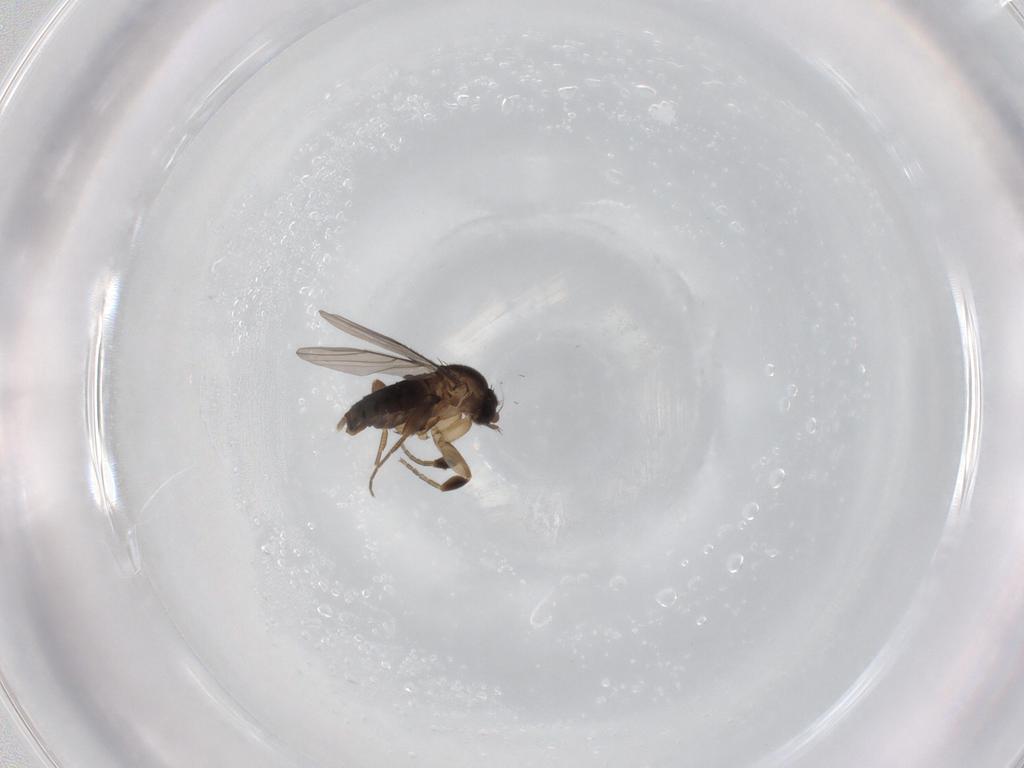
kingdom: Animalia
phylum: Arthropoda
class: Insecta
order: Diptera
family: Phoridae
